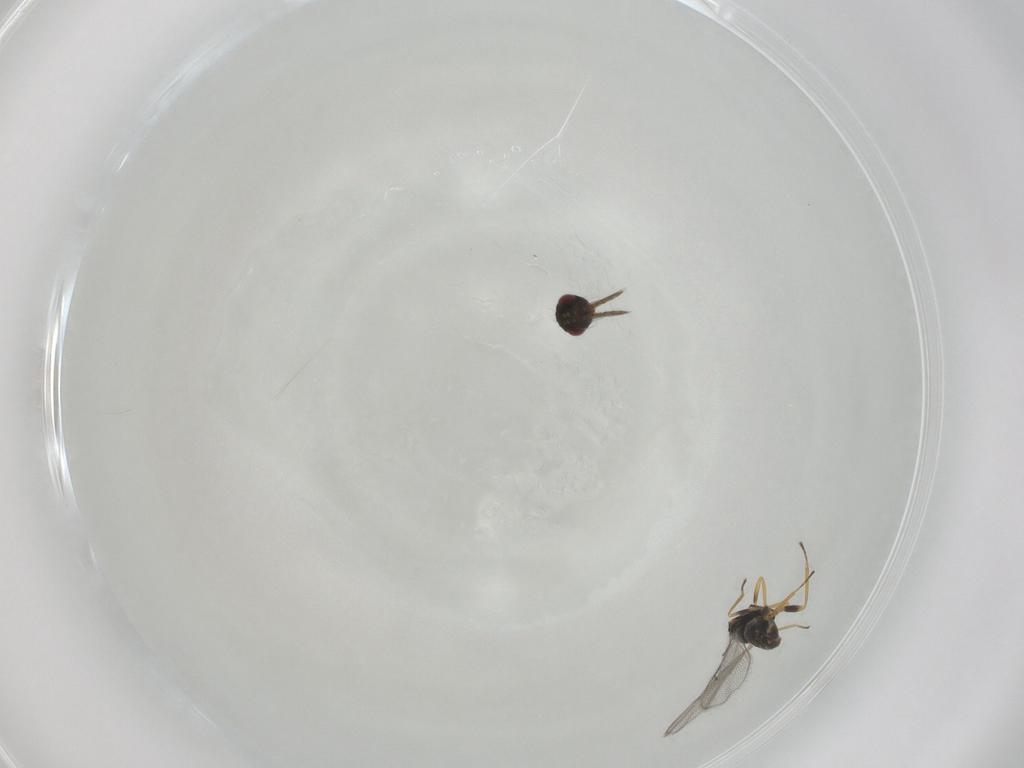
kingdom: Animalia
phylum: Arthropoda
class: Insecta
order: Hymenoptera
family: Eulophidae
